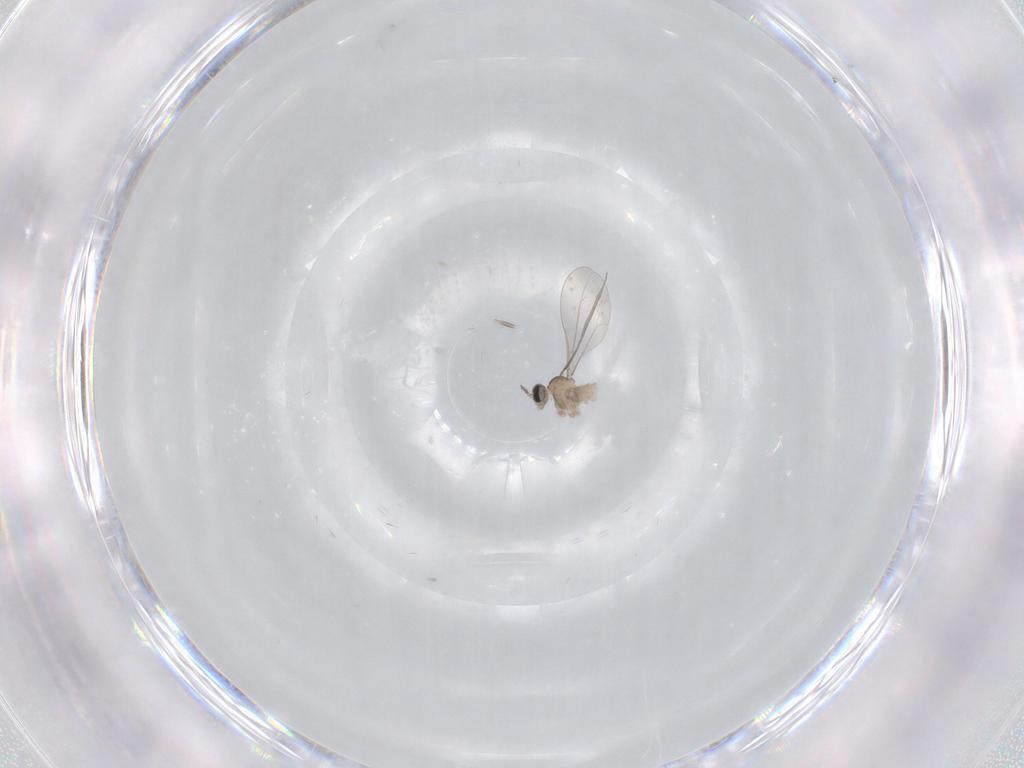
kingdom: Animalia
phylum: Arthropoda
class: Insecta
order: Diptera
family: Cecidomyiidae
